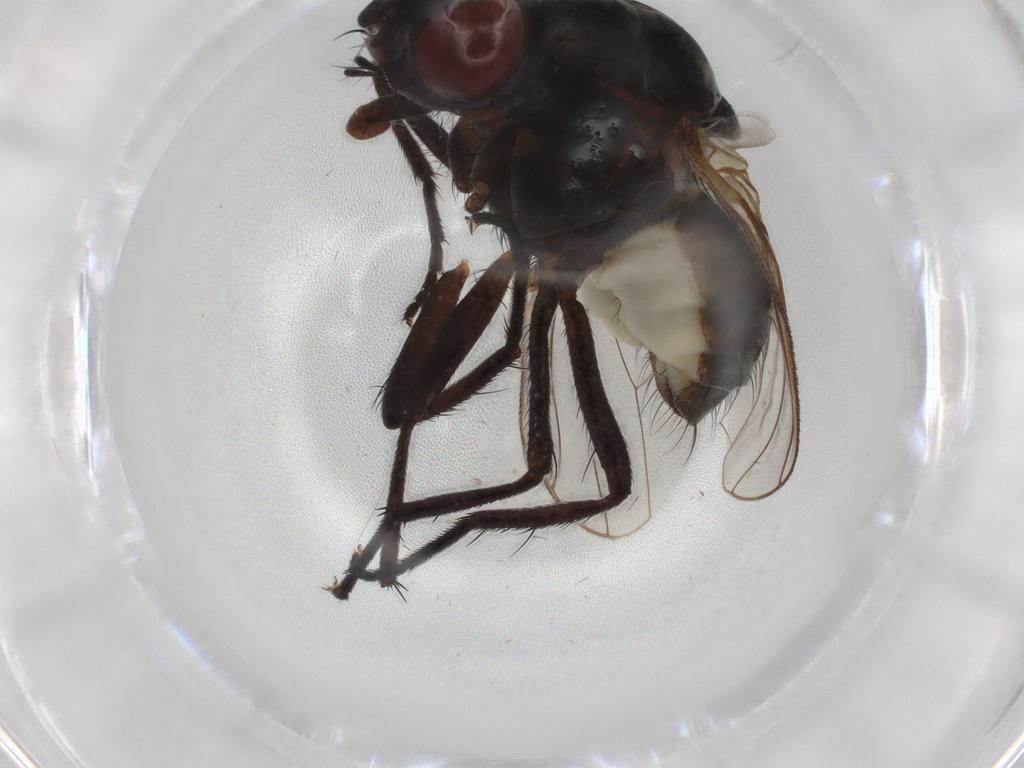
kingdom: Animalia
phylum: Arthropoda
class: Insecta
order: Diptera
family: Anthomyiidae
